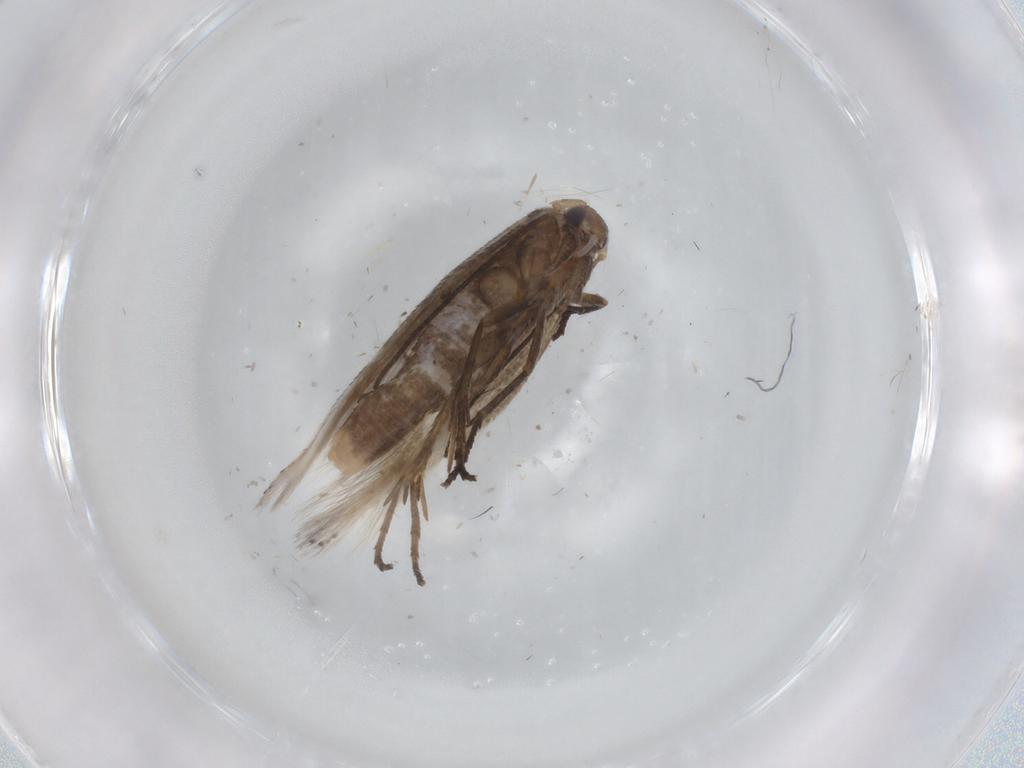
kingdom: Animalia
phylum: Arthropoda
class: Insecta
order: Lepidoptera
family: Bucculatricidae
